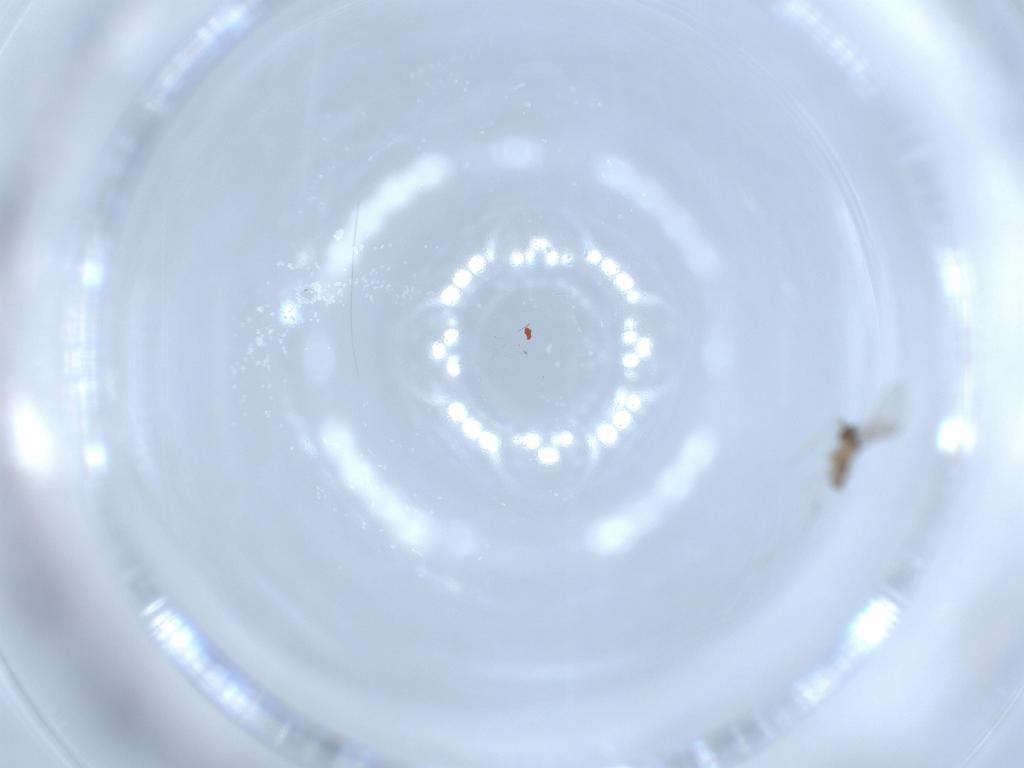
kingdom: Animalia
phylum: Arthropoda
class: Insecta
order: Diptera
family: Cecidomyiidae
